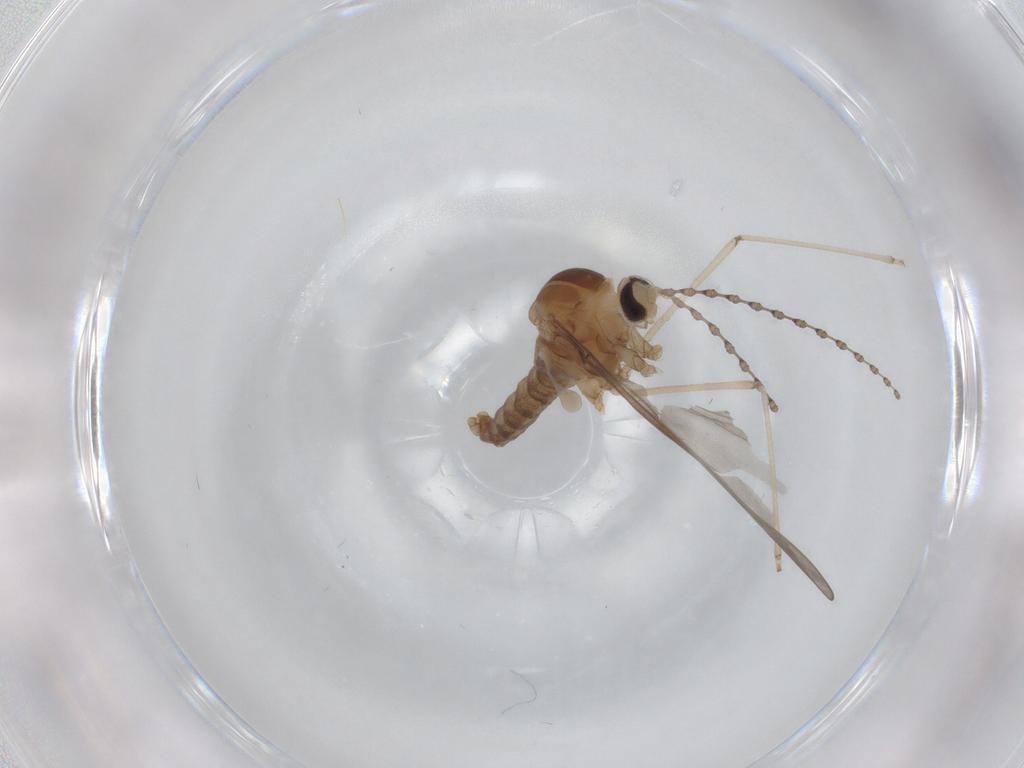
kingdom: Animalia
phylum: Arthropoda
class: Insecta
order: Diptera
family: Cecidomyiidae
